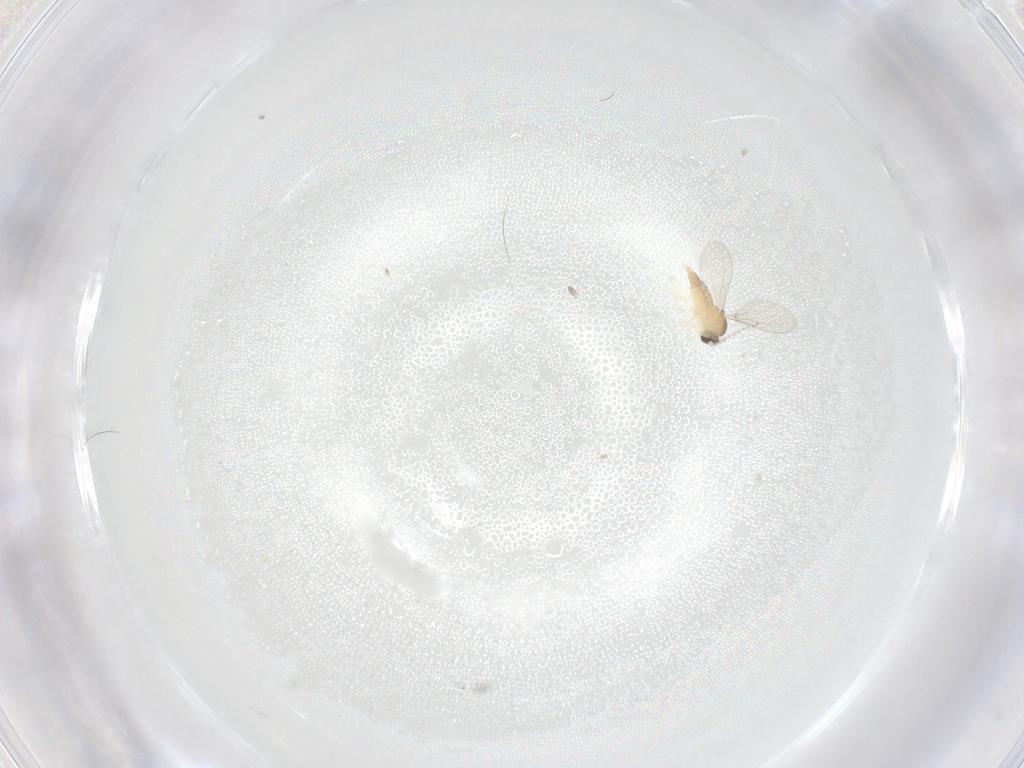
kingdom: Animalia
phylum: Arthropoda
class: Insecta
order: Diptera
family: Cecidomyiidae
